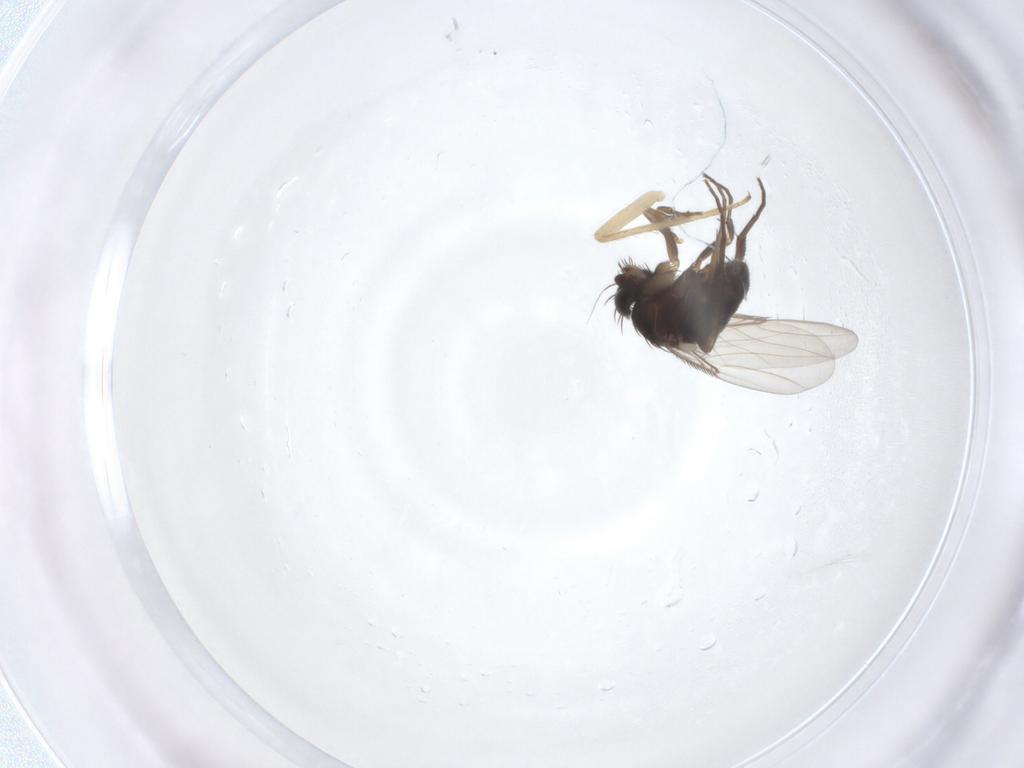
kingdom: Animalia
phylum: Arthropoda
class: Insecta
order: Diptera
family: Phoridae
